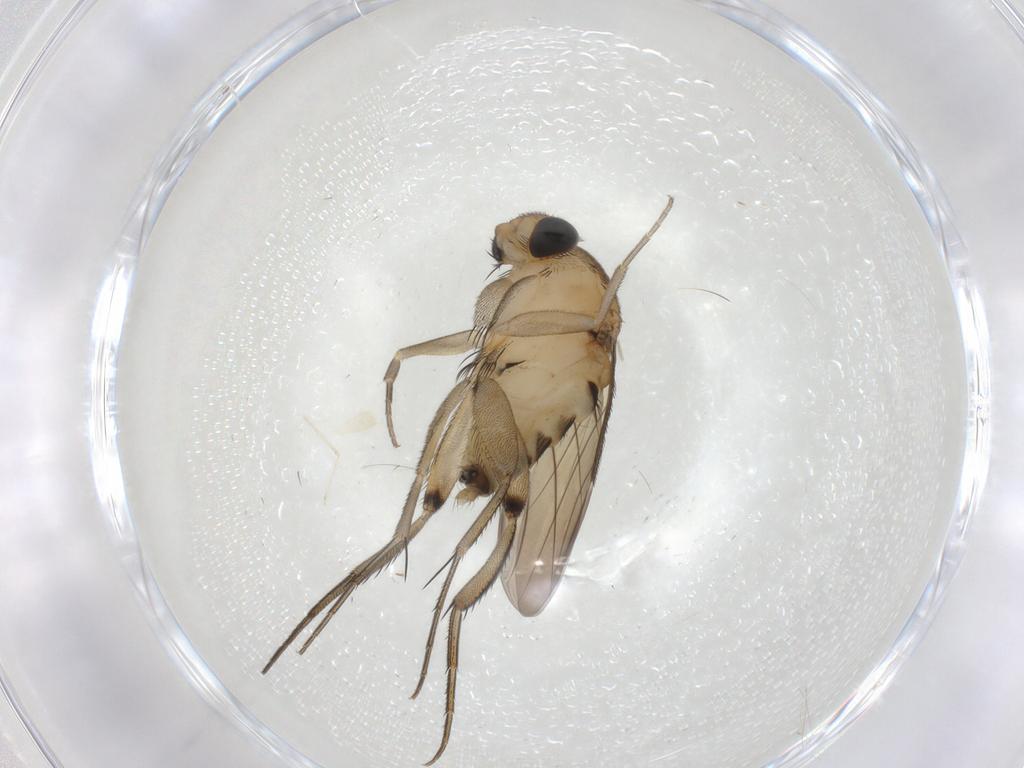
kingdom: Animalia
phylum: Arthropoda
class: Insecta
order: Diptera
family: Phoridae
